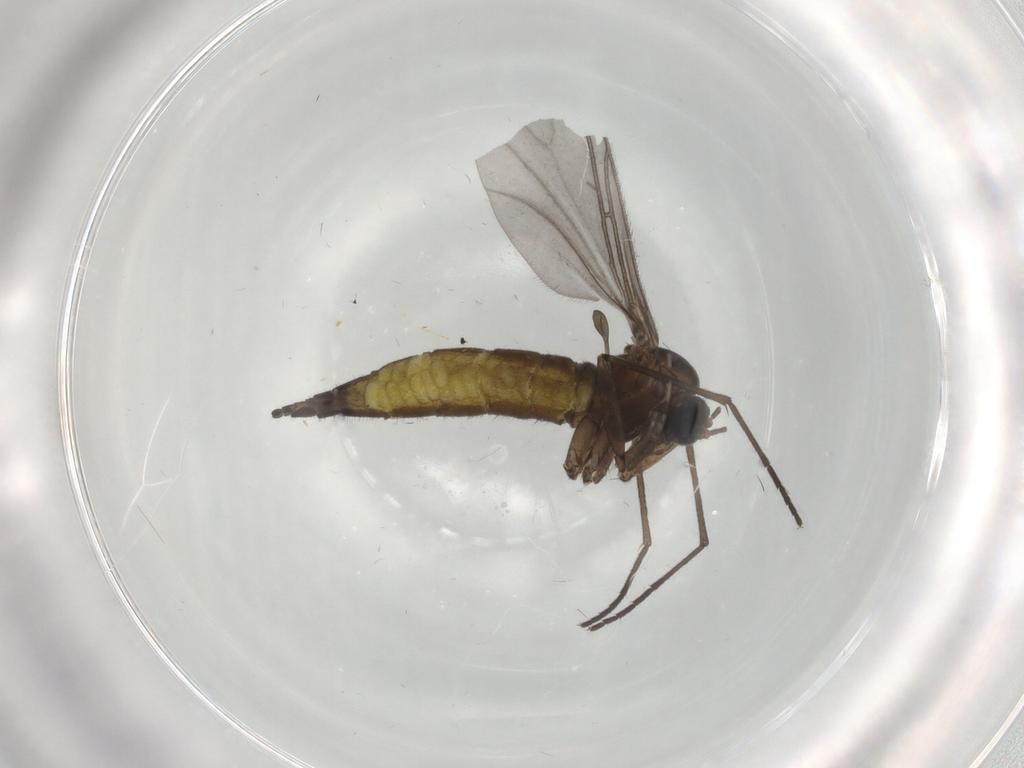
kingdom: Animalia
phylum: Arthropoda
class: Insecta
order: Diptera
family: Sciaridae
